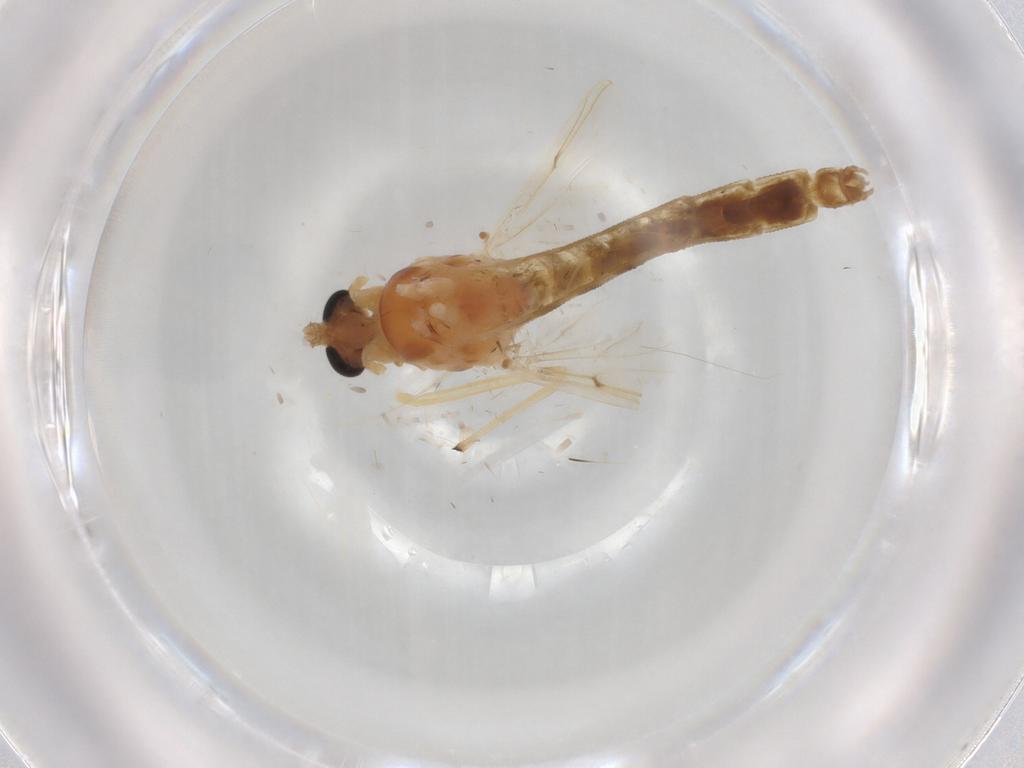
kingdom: Animalia
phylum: Arthropoda
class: Insecta
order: Diptera
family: Chironomidae
